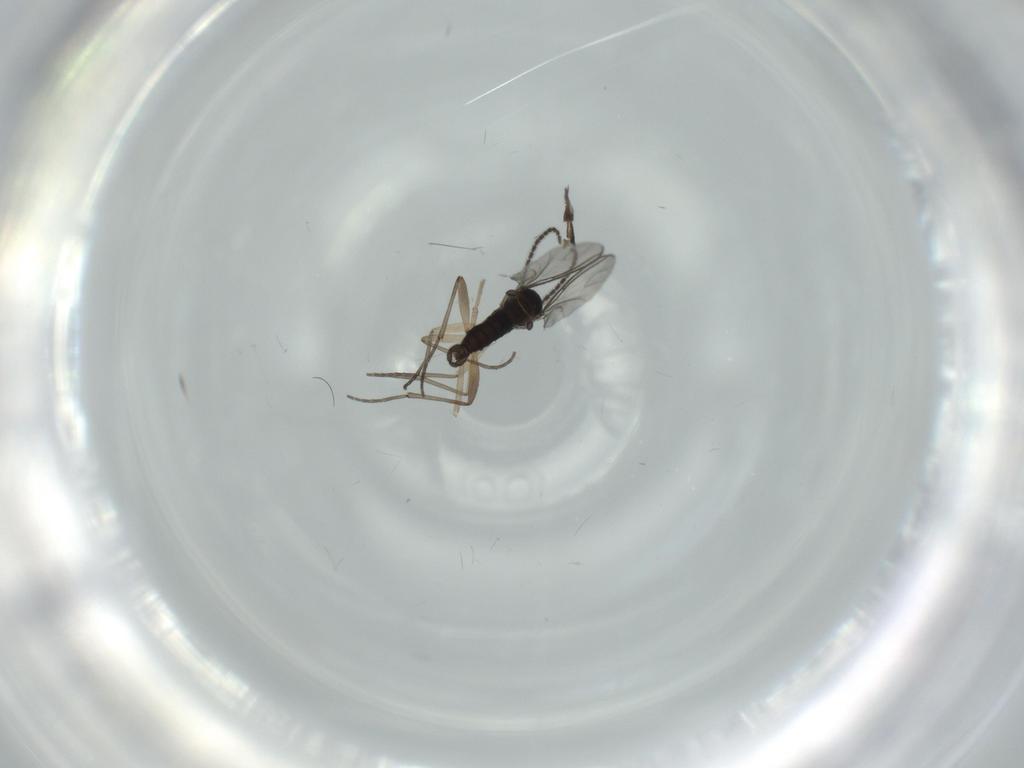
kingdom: Animalia
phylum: Arthropoda
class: Insecta
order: Diptera
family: Sciaridae
